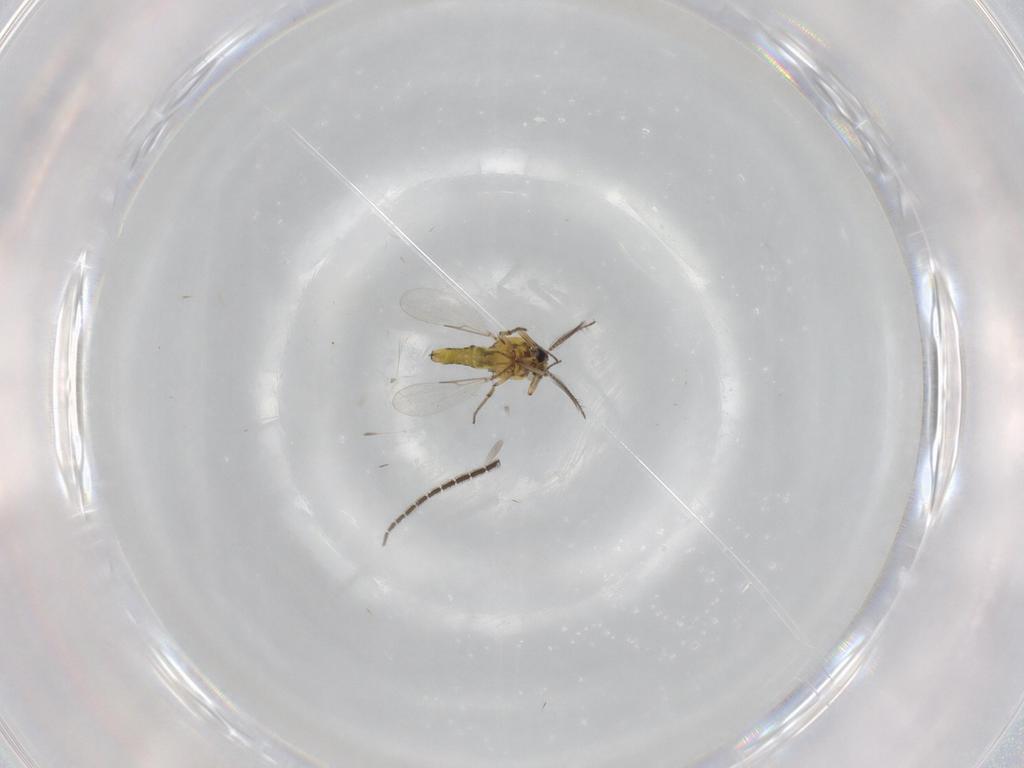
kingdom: Animalia
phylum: Arthropoda
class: Insecta
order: Diptera
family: Ceratopogonidae
